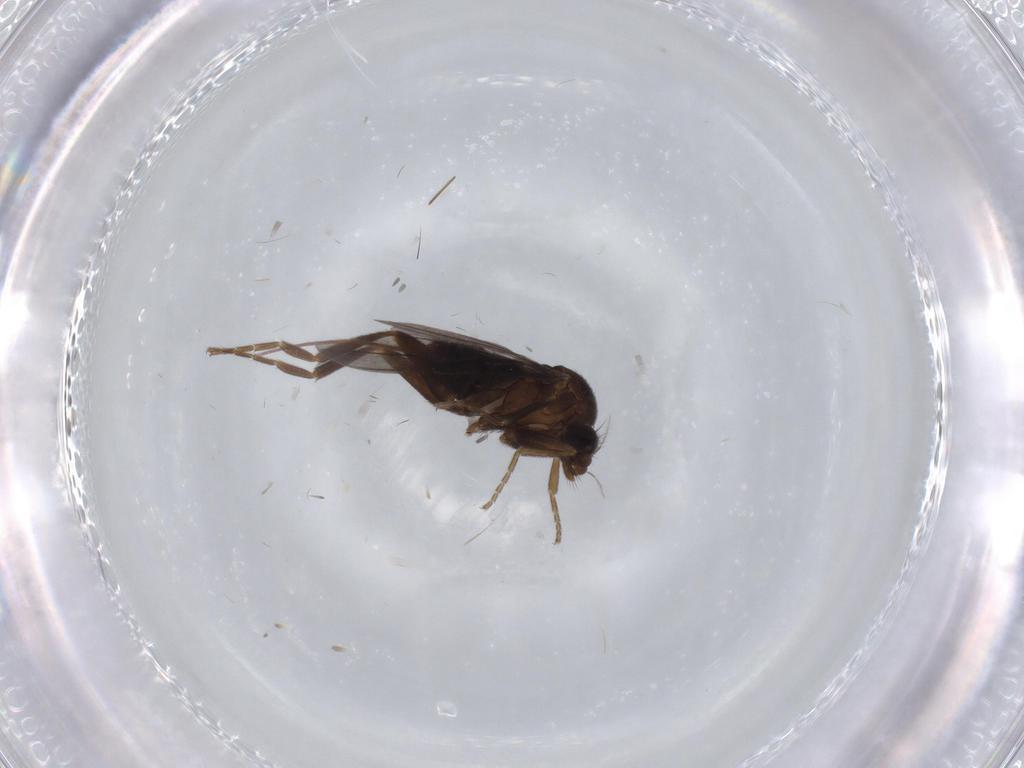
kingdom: Animalia
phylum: Arthropoda
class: Insecta
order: Diptera
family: Phoridae
